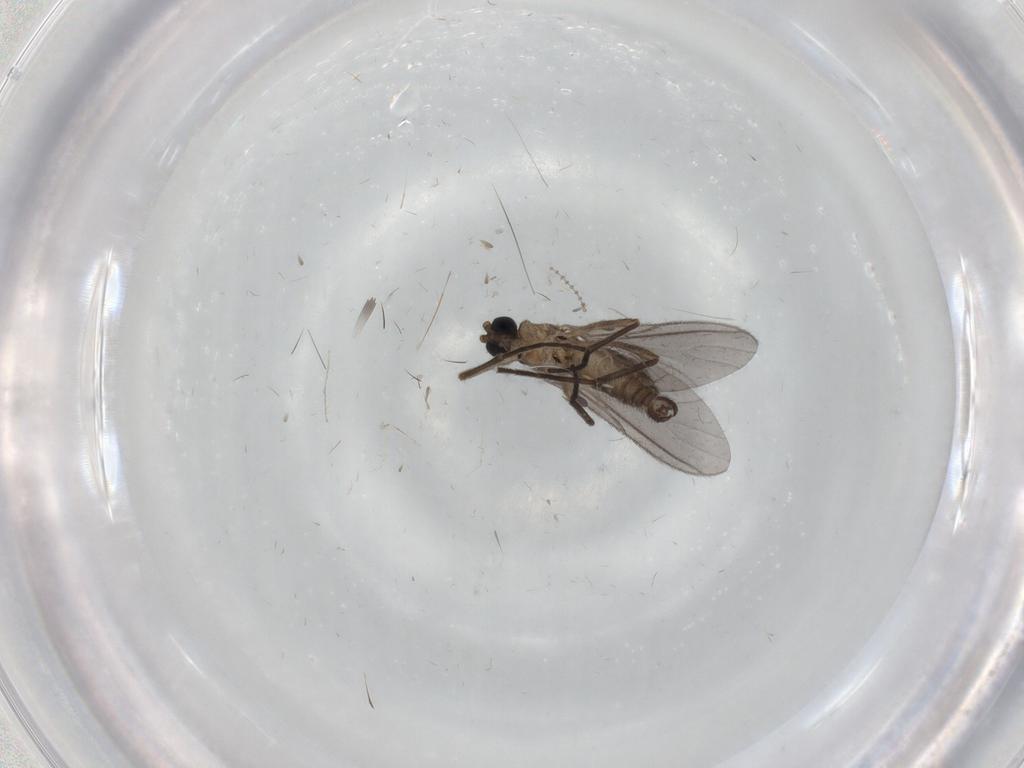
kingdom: Animalia
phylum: Arthropoda
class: Insecta
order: Diptera
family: Sciaridae
